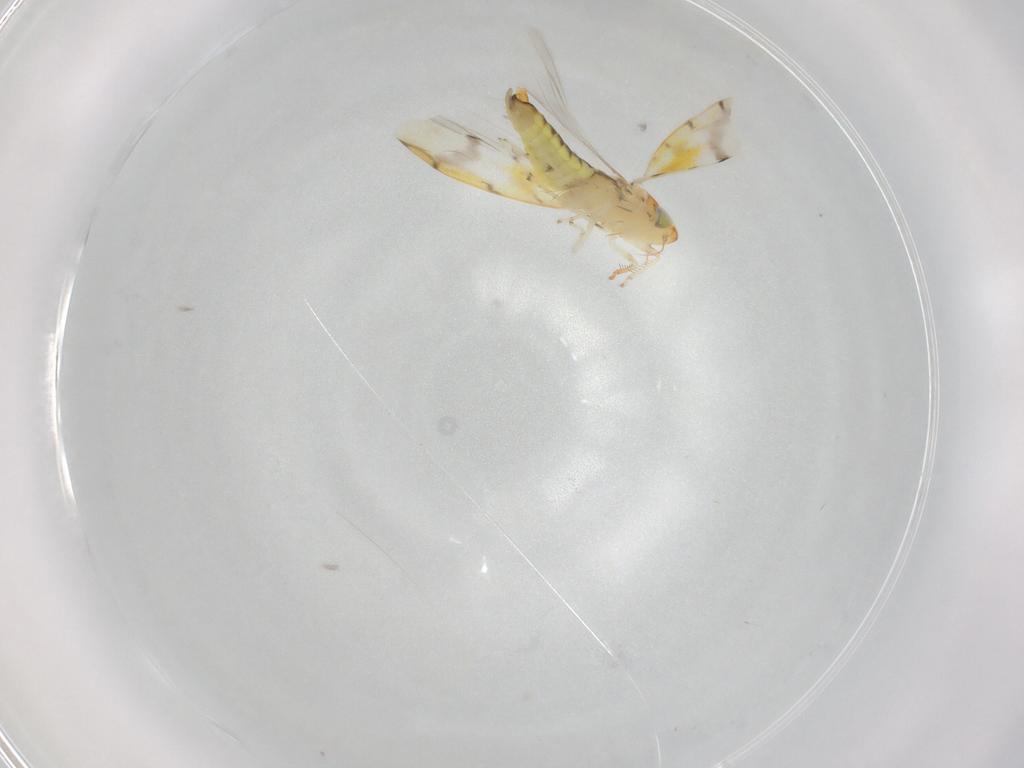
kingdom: Animalia
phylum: Arthropoda
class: Insecta
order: Hemiptera
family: Cicadellidae
